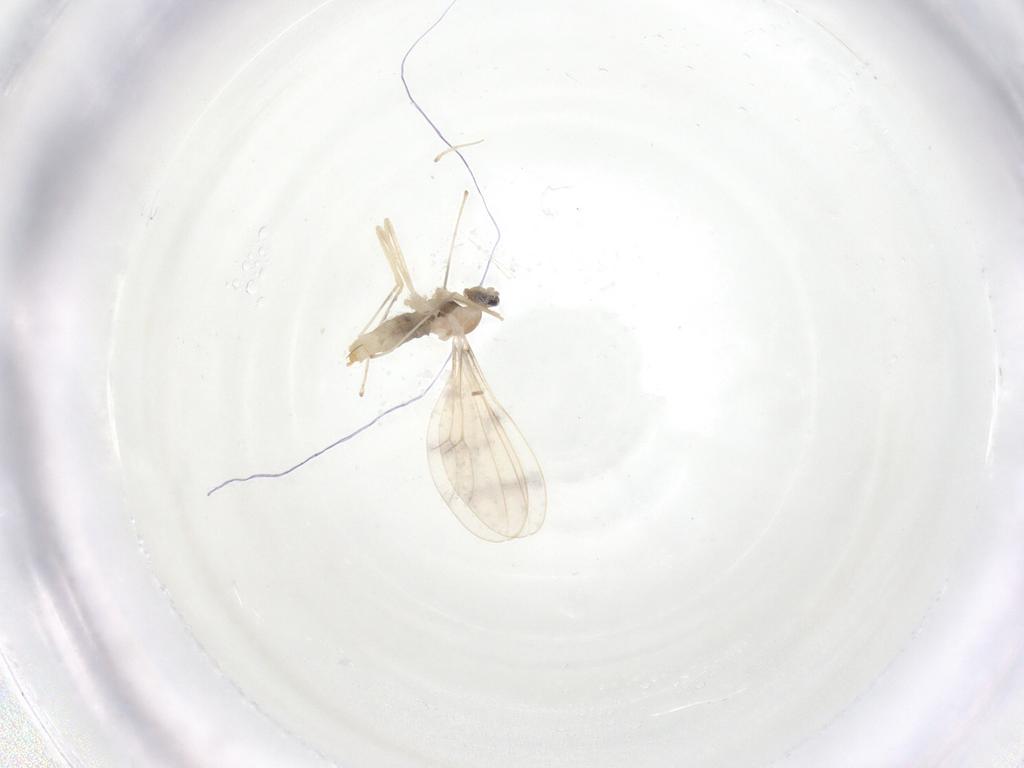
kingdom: Animalia
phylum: Arthropoda
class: Insecta
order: Diptera
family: Cecidomyiidae
